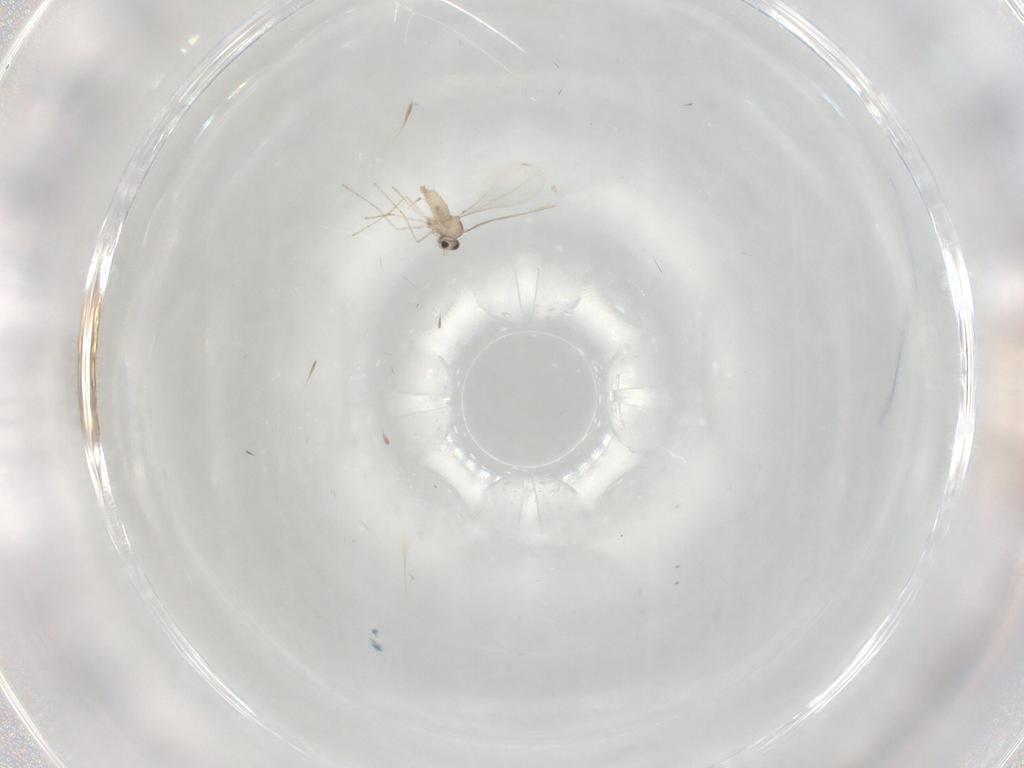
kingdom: Animalia
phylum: Arthropoda
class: Insecta
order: Diptera
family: Cecidomyiidae
